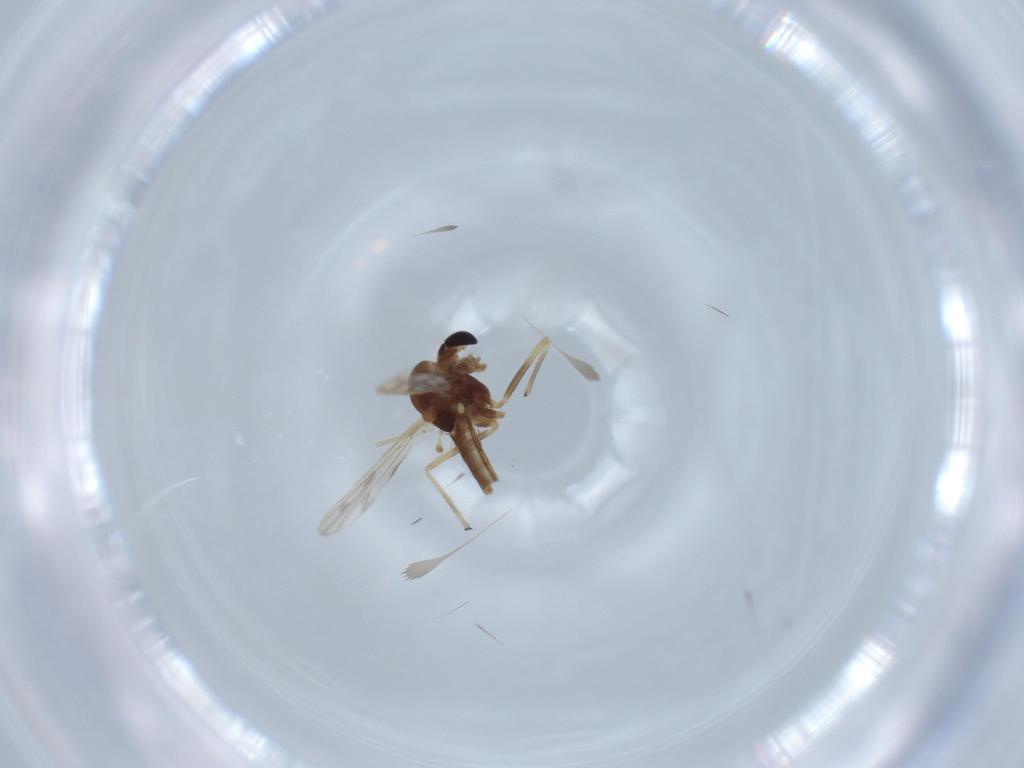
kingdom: Animalia
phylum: Arthropoda
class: Insecta
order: Diptera
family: Chironomidae
